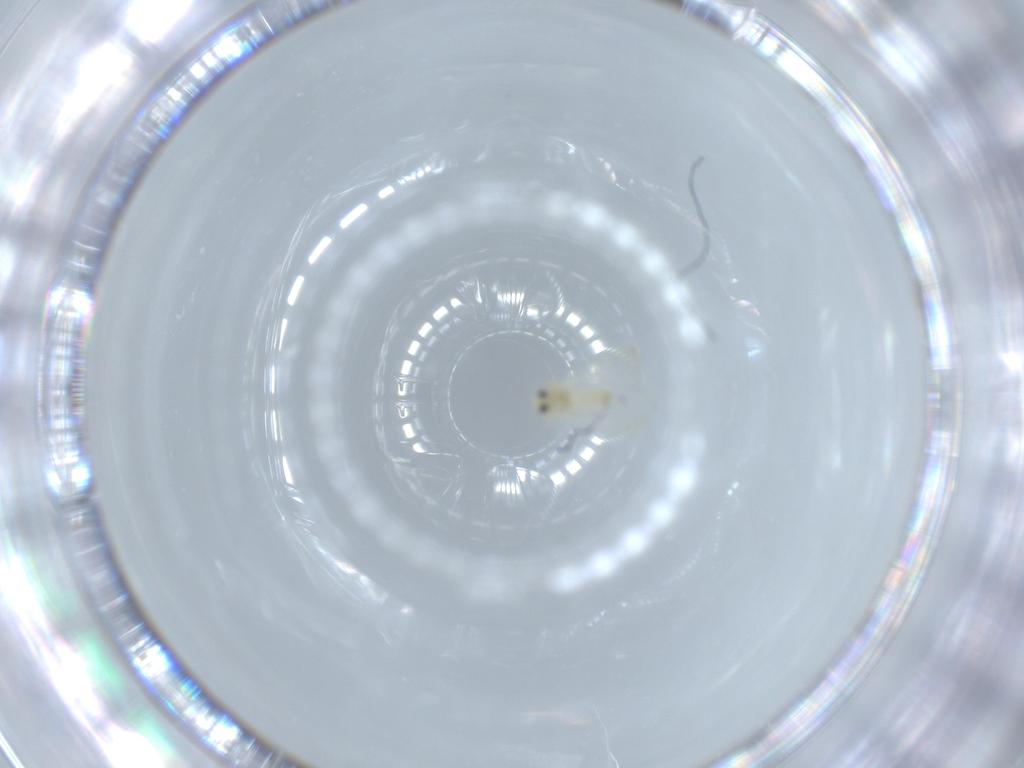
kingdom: Animalia
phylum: Arthropoda
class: Insecta
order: Hemiptera
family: Aleyrodidae
